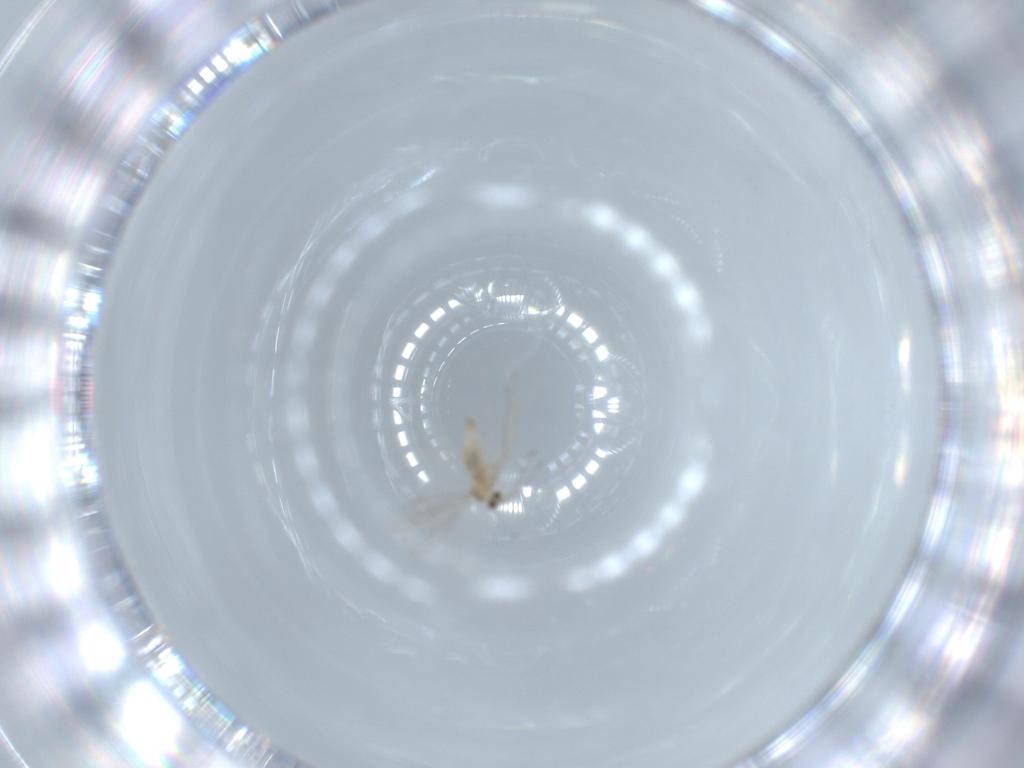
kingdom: Animalia
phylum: Arthropoda
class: Insecta
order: Diptera
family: Cecidomyiidae
